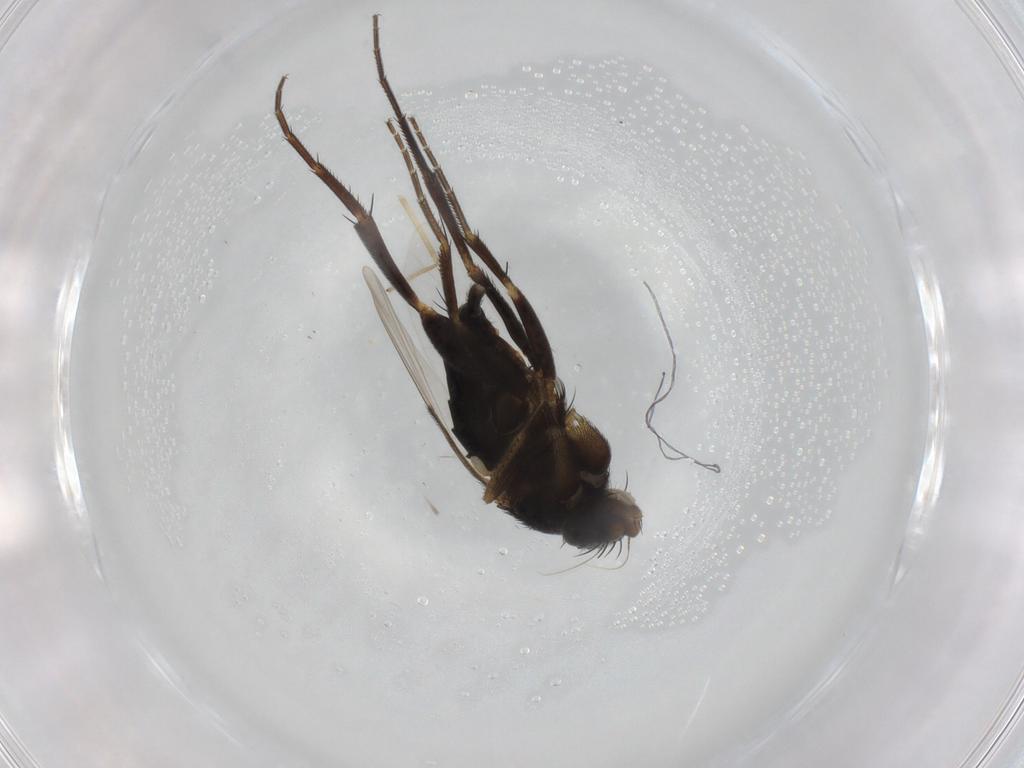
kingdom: Animalia
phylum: Arthropoda
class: Insecta
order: Diptera
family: Phoridae
